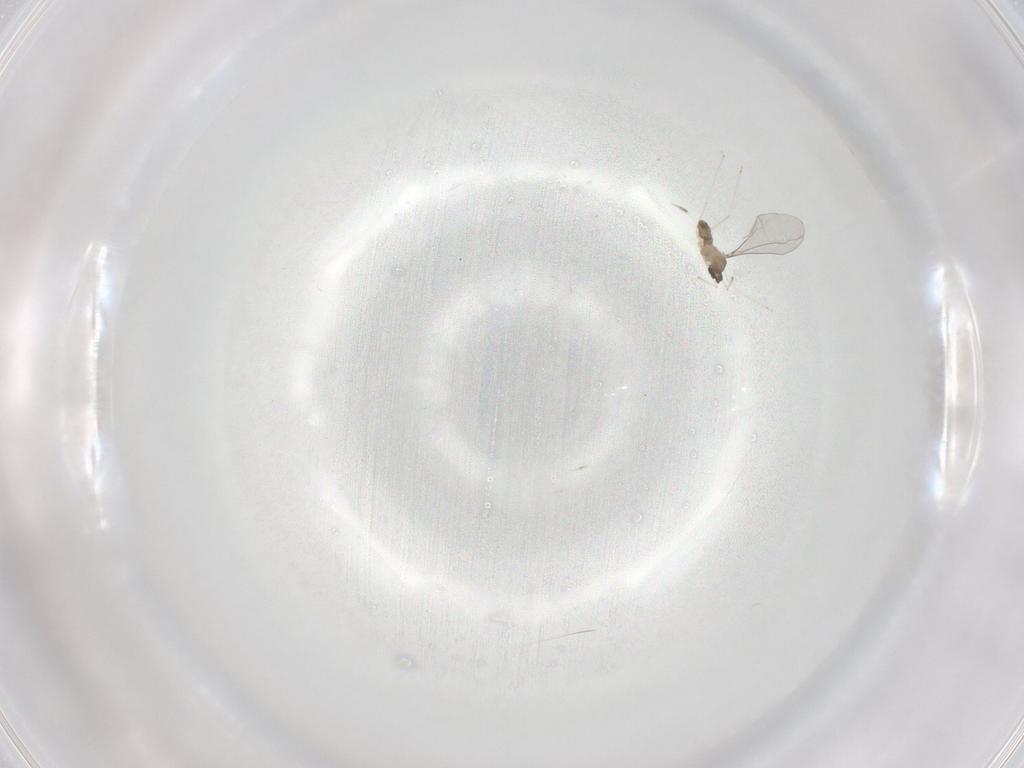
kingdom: Animalia
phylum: Arthropoda
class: Insecta
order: Diptera
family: Cecidomyiidae
